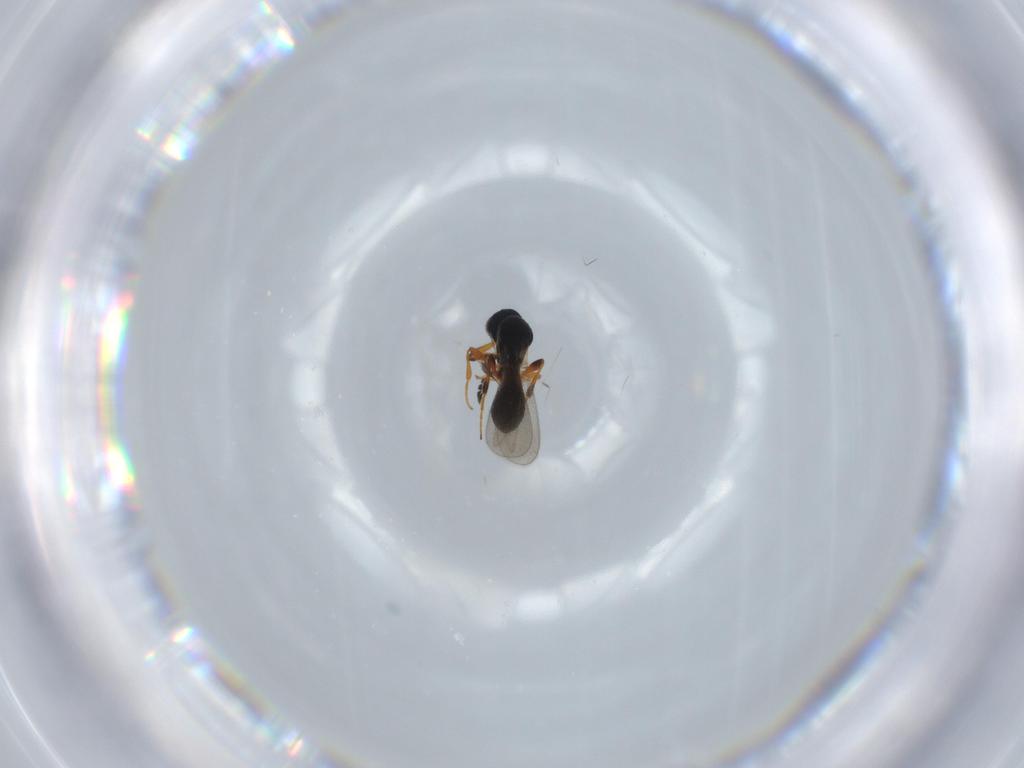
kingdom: Animalia
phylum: Arthropoda
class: Insecta
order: Hymenoptera
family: Platygastridae
